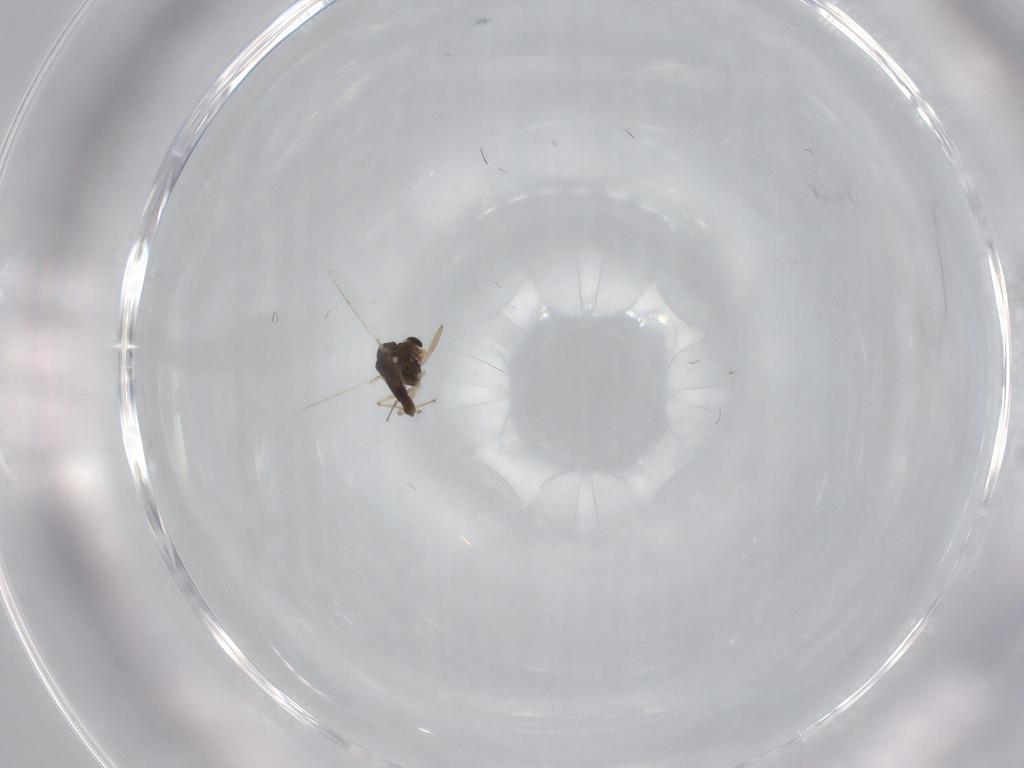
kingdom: Animalia
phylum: Arthropoda
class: Insecta
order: Diptera
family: Chironomidae
